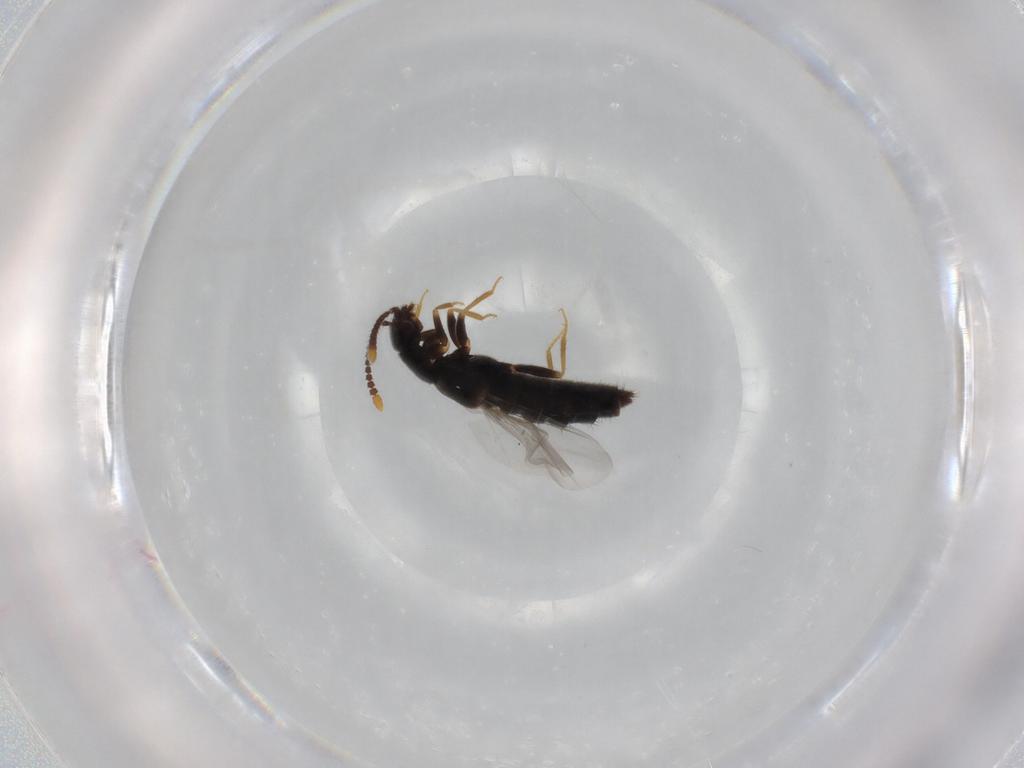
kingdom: Animalia
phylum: Arthropoda
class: Insecta
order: Coleoptera
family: Staphylinidae
